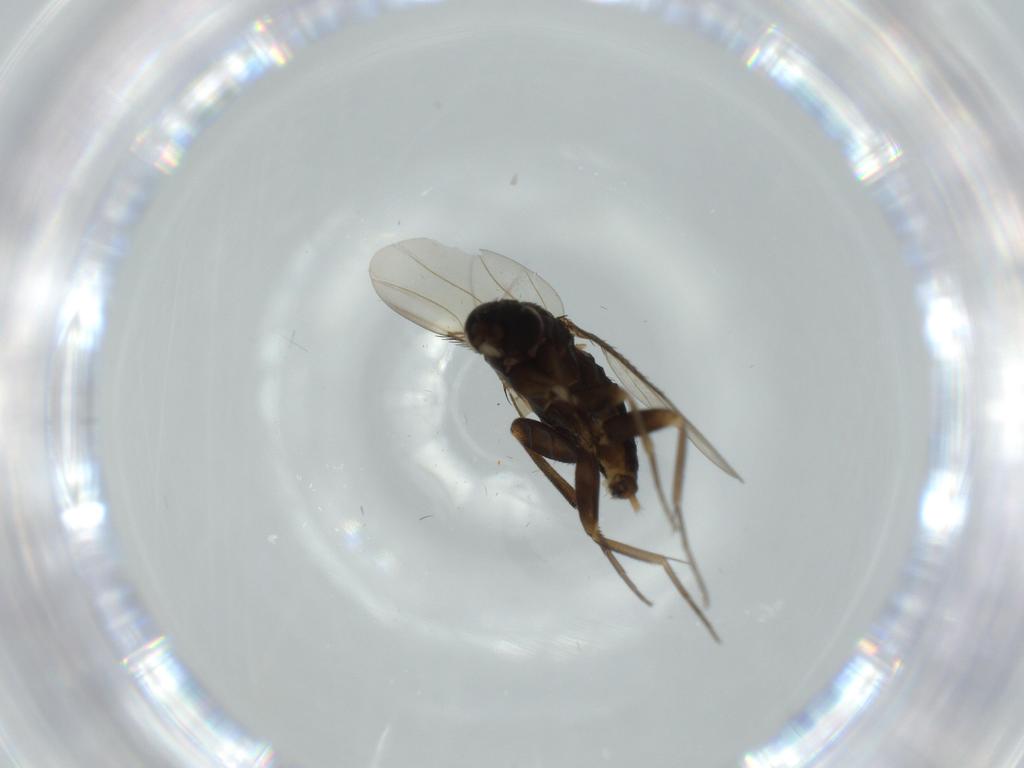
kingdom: Animalia
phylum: Arthropoda
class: Insecta
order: Diptera
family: Phoridae
